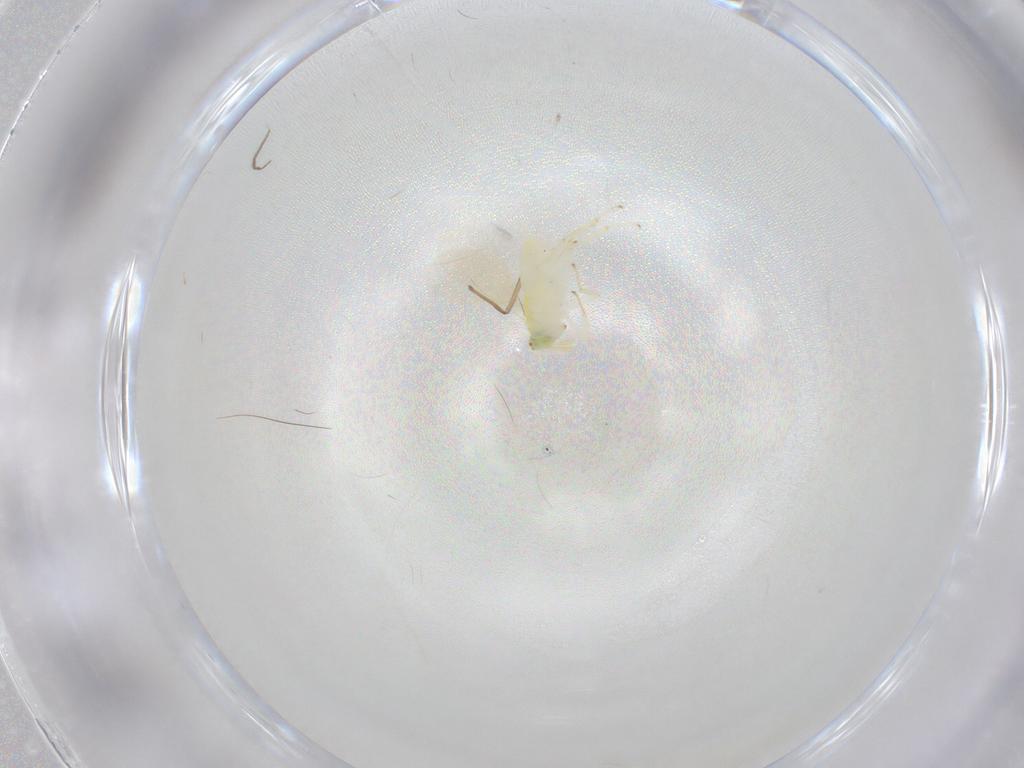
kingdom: Animalia
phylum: Arthropoda
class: Insecta
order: Hymenoptera
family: Aphelinidae
